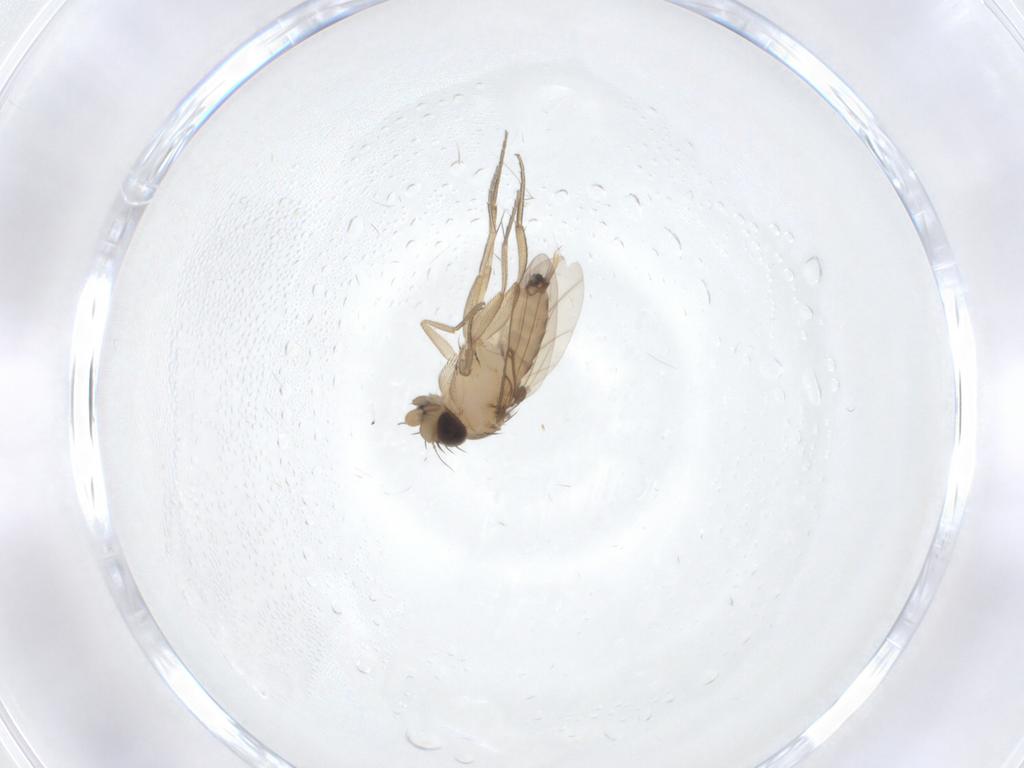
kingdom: Animalia
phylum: Arthropoda
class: Insecta
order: Diptera
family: Phoridae
